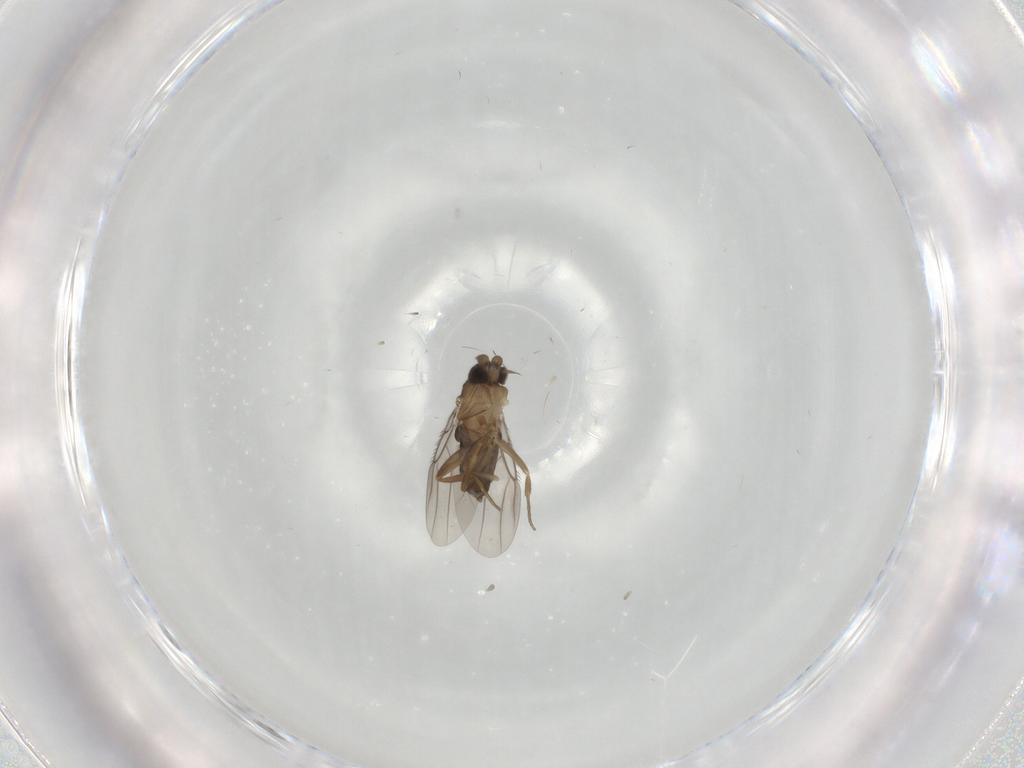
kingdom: Animalia
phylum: Arthropoda
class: Insecta
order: Diptera
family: Phoridae
